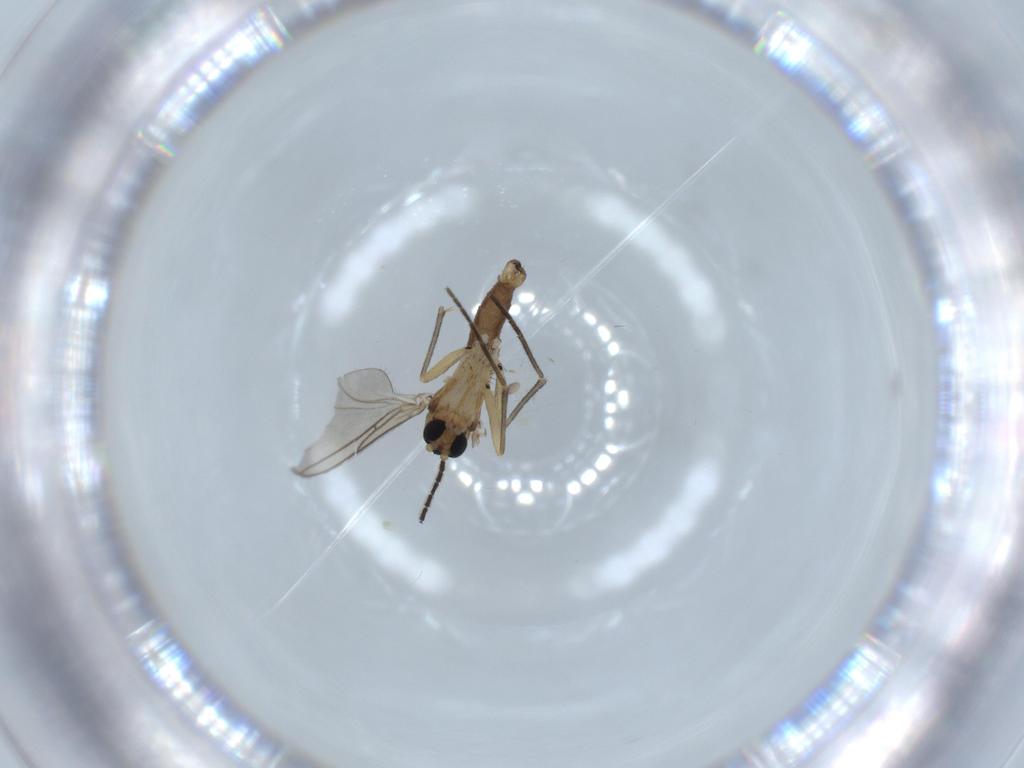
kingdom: Animalia
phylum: Arthropoda
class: Insecta
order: Diptera
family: Sciaridae
